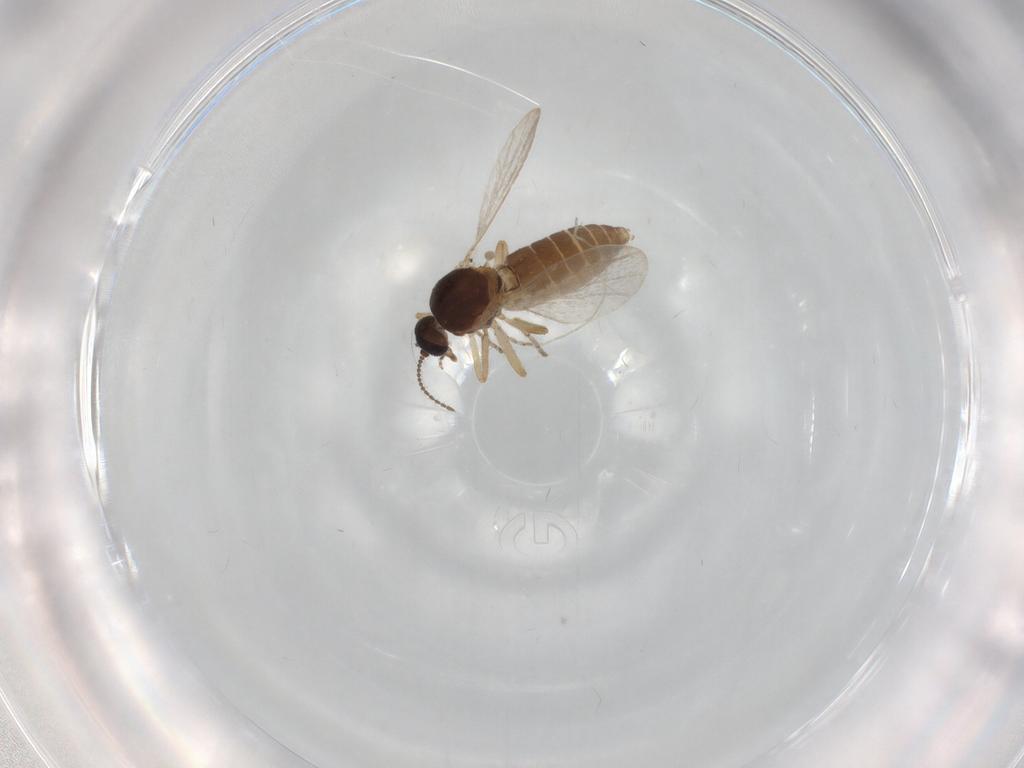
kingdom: Animalia
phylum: Arthropoda
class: Insecta
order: Diptera
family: Ceratopogonidae
